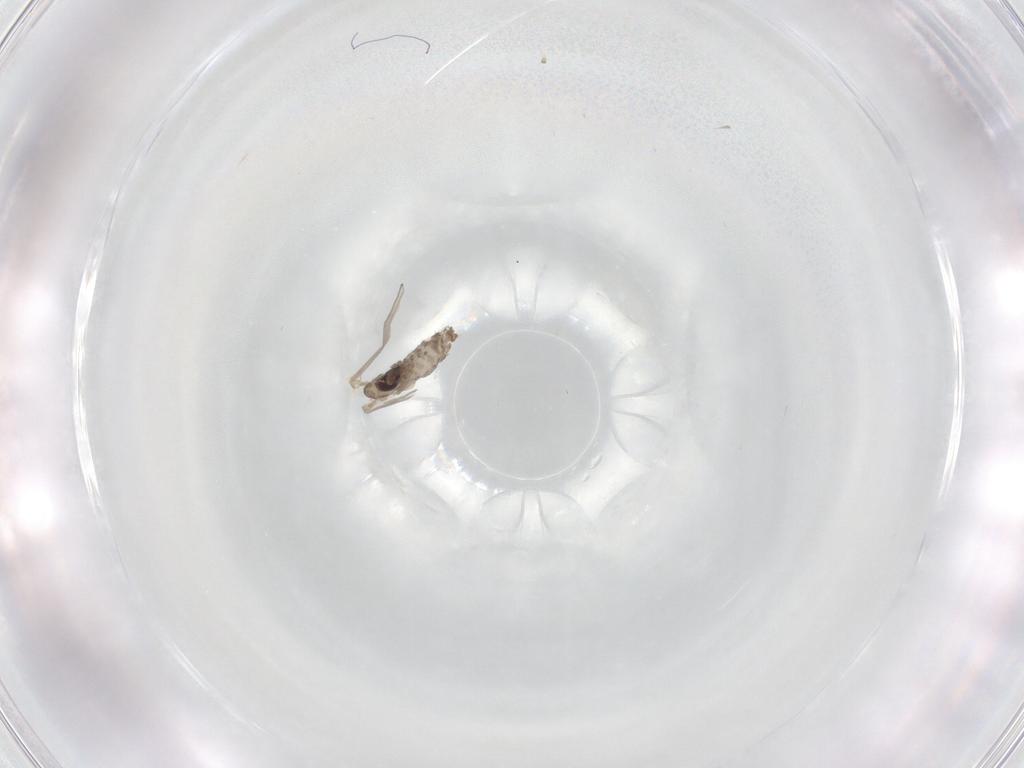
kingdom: Animalia
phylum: Arthropoda
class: Insecta
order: Diptera
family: Psychodidae
